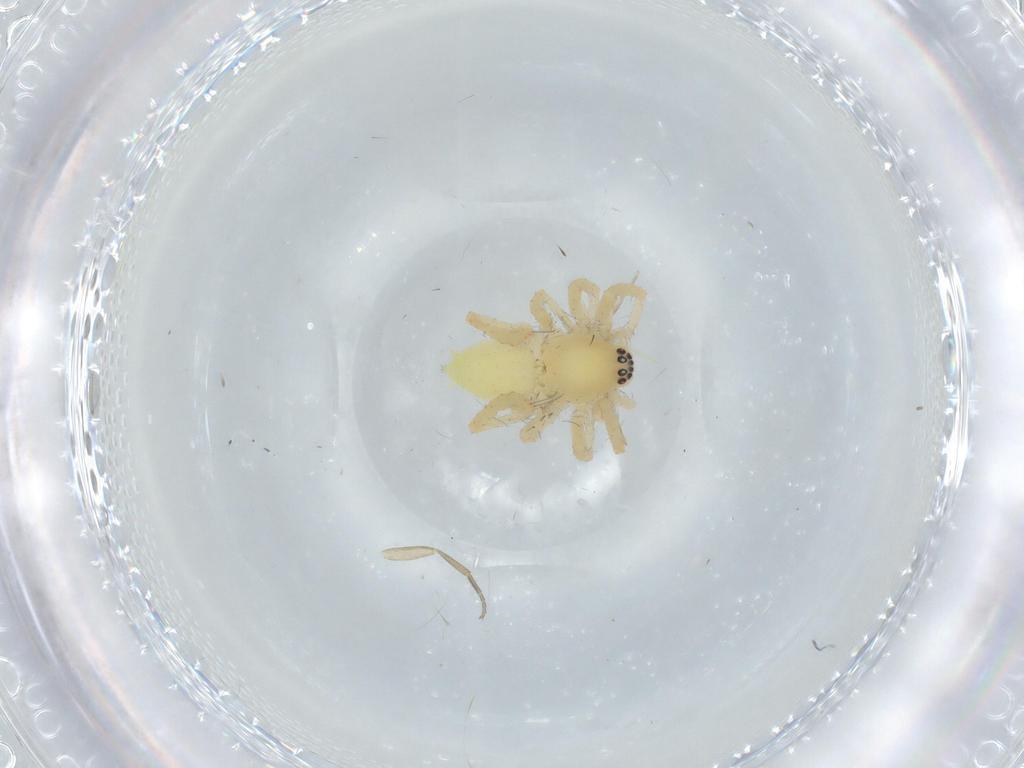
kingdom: Animalia
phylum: Arthropoda
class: Arachnida
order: Araneae
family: Anyphaenidae
